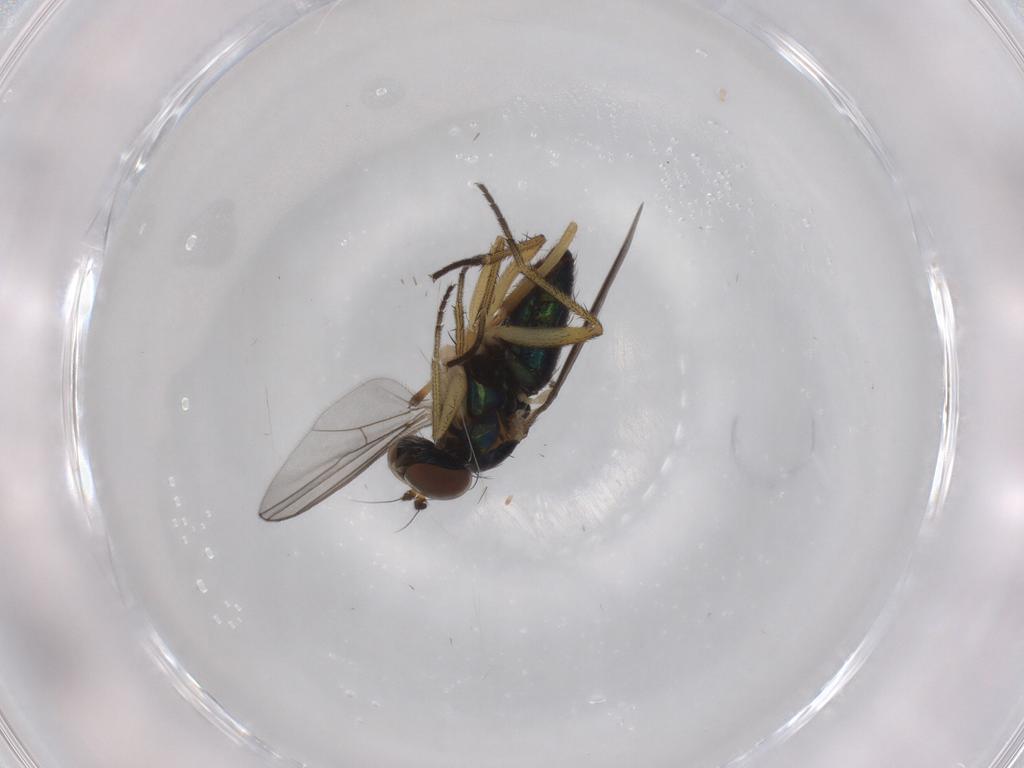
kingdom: Animalia
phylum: Arthropoda
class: Insecta
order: Diptera
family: Dolichopodidae
